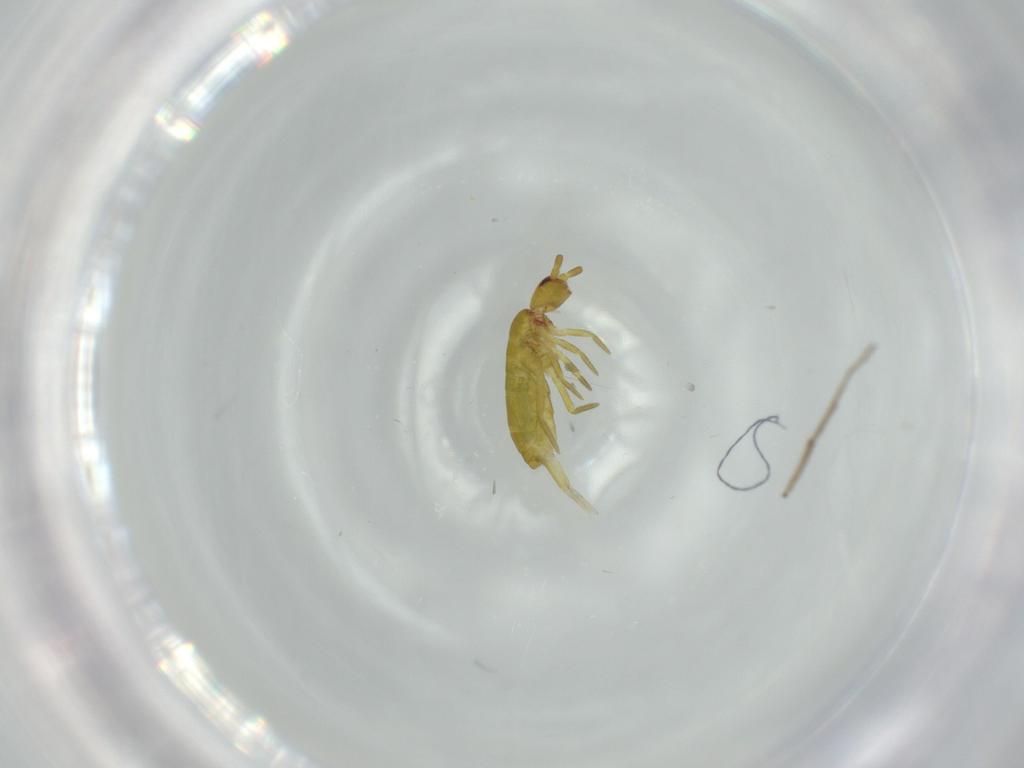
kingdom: Animalia
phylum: Arthropoda
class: Collembola
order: Entomobryomorpha
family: Tomoceridae
